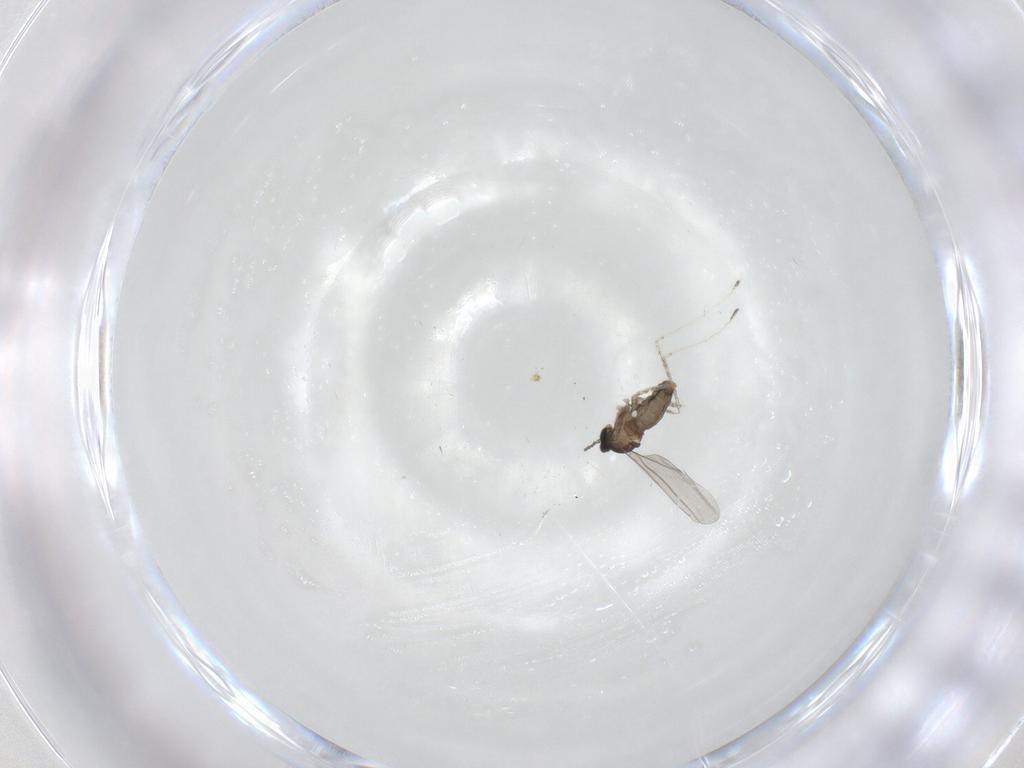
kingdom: Animalia
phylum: Arthropoda
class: Insecta
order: Diptera
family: Cecidomyiidae
